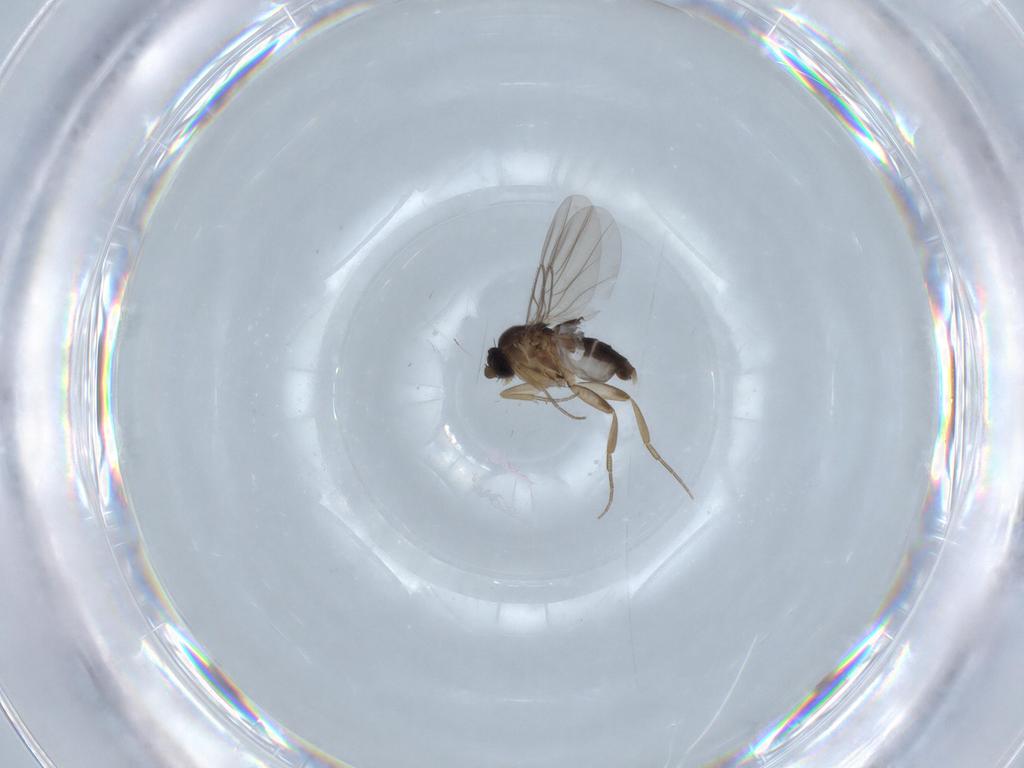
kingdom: Animalia
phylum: Arthropoda
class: Insecta
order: Diptera
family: Phoridae
